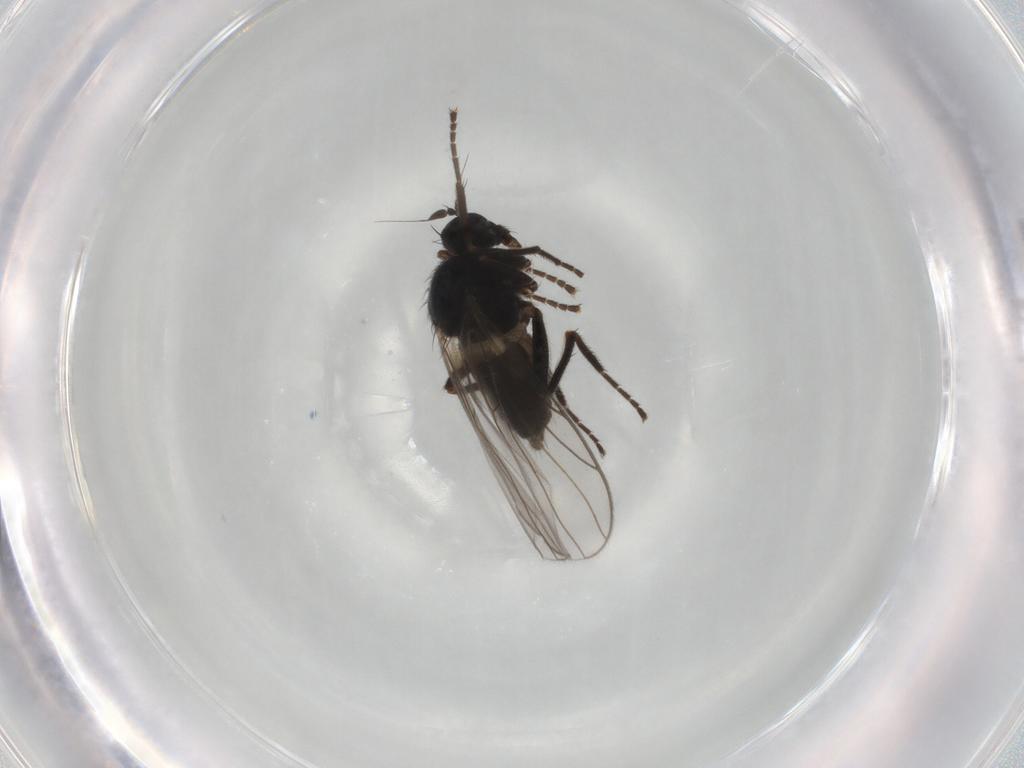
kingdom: Animalia
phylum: Arthropoda
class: Insecta
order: Diptera
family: Hybotidae
